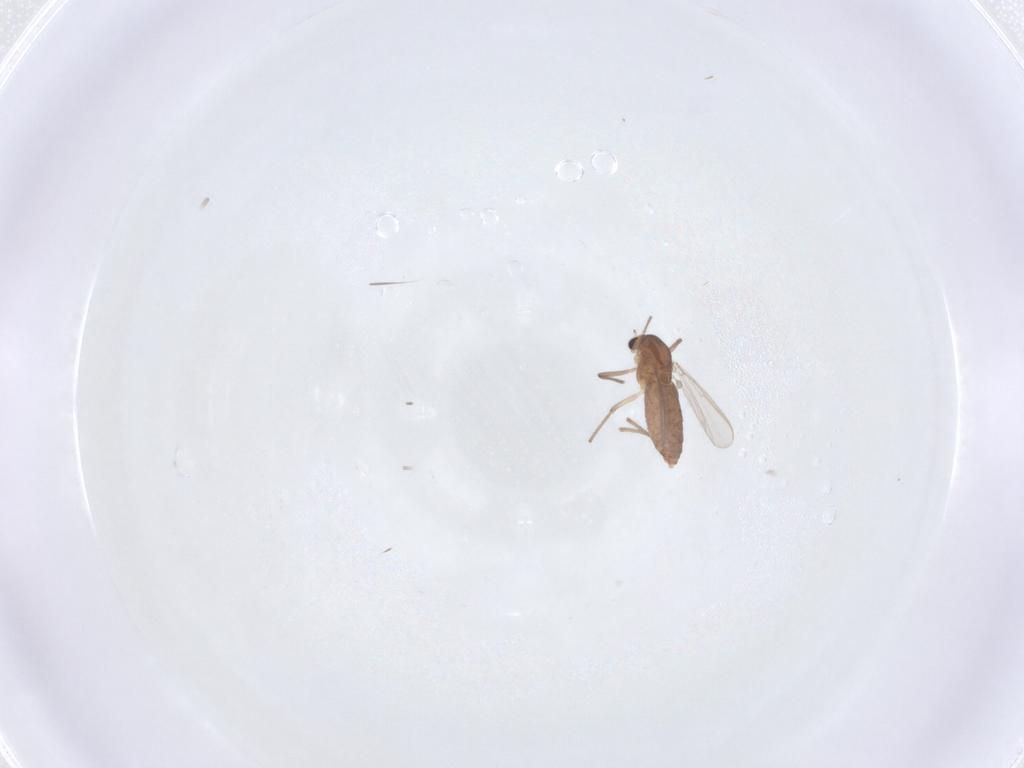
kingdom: Animalia
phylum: Arthropoda
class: Insecta
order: Diptera
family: Chironomidae
